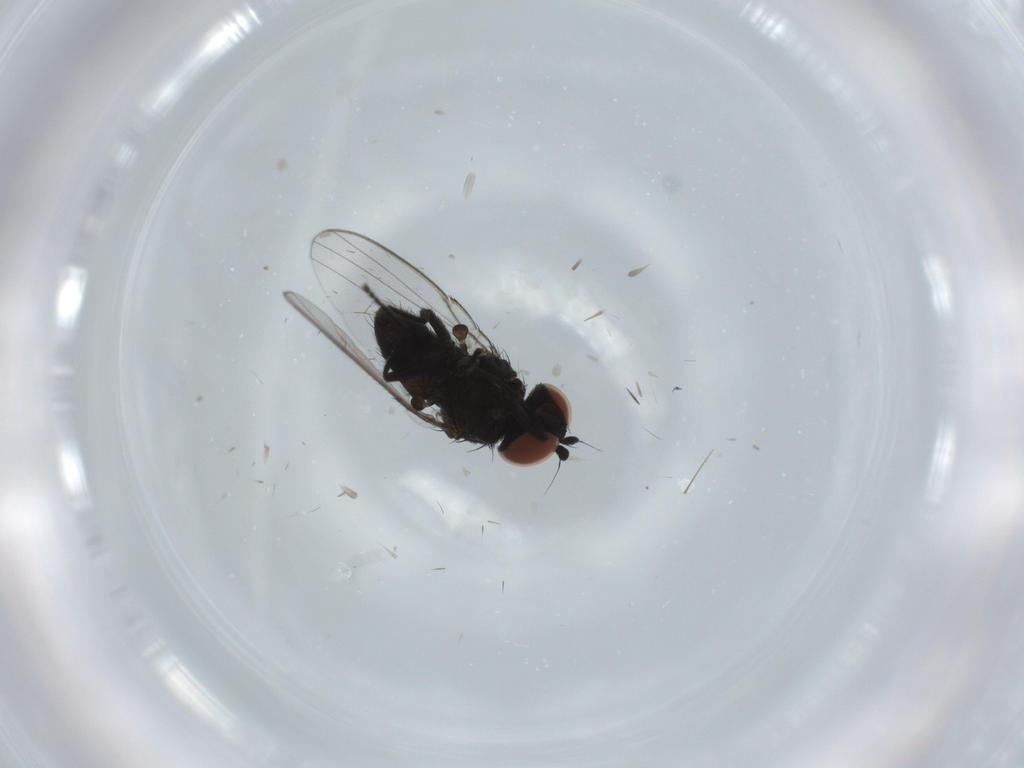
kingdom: Animalia
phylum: Arthropoda
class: Insecta
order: Diptera
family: Milichiidae
